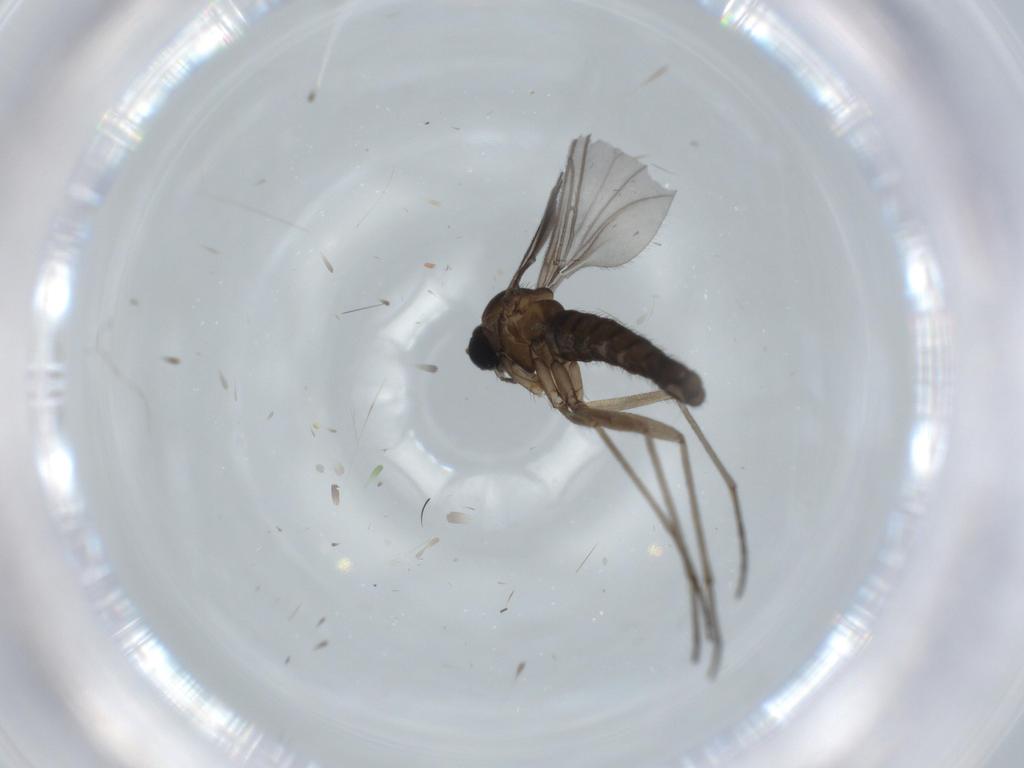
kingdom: Animalia
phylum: Arthropoda
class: Insecta
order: Diptera
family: Sciaridae
